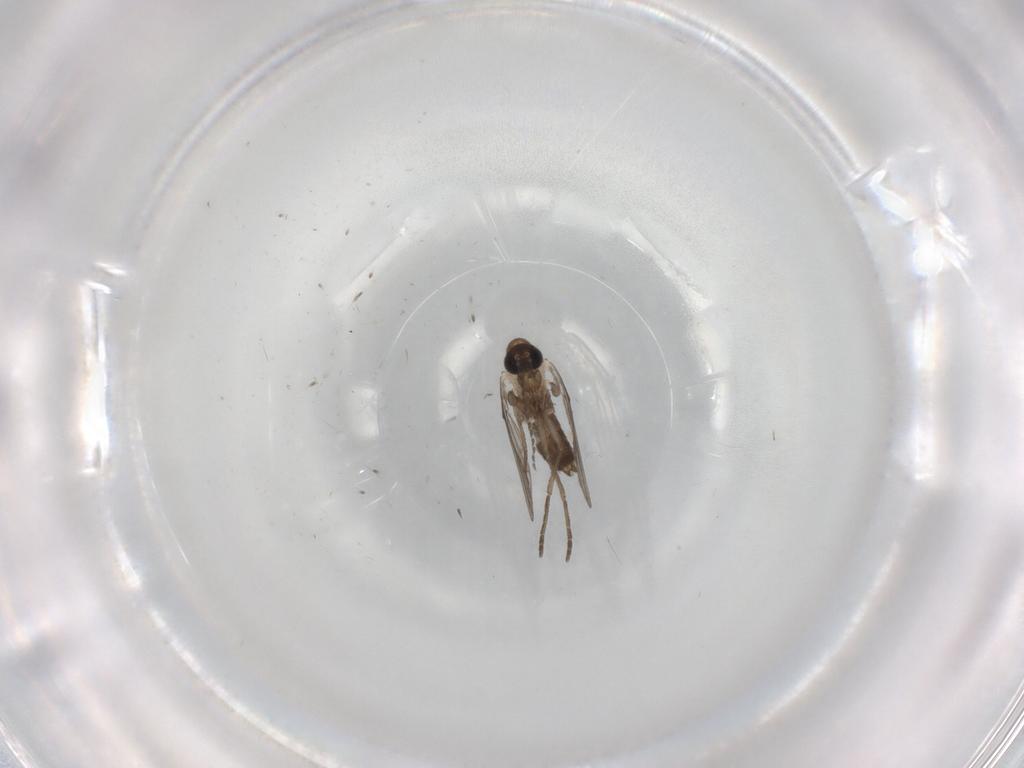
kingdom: Animalia
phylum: Arthropoda
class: Insecta
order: Diptera
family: Psychodidae
